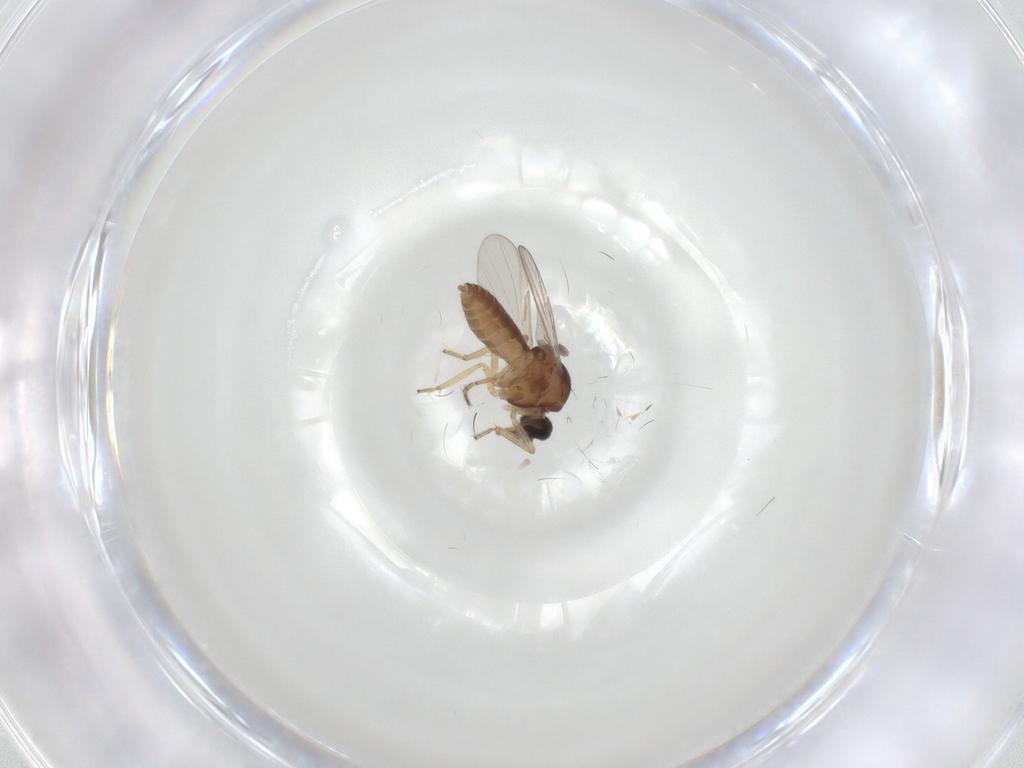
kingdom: Animalia
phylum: Arthropoda
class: Insecta
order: Diptera
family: Ceratopogonidae
